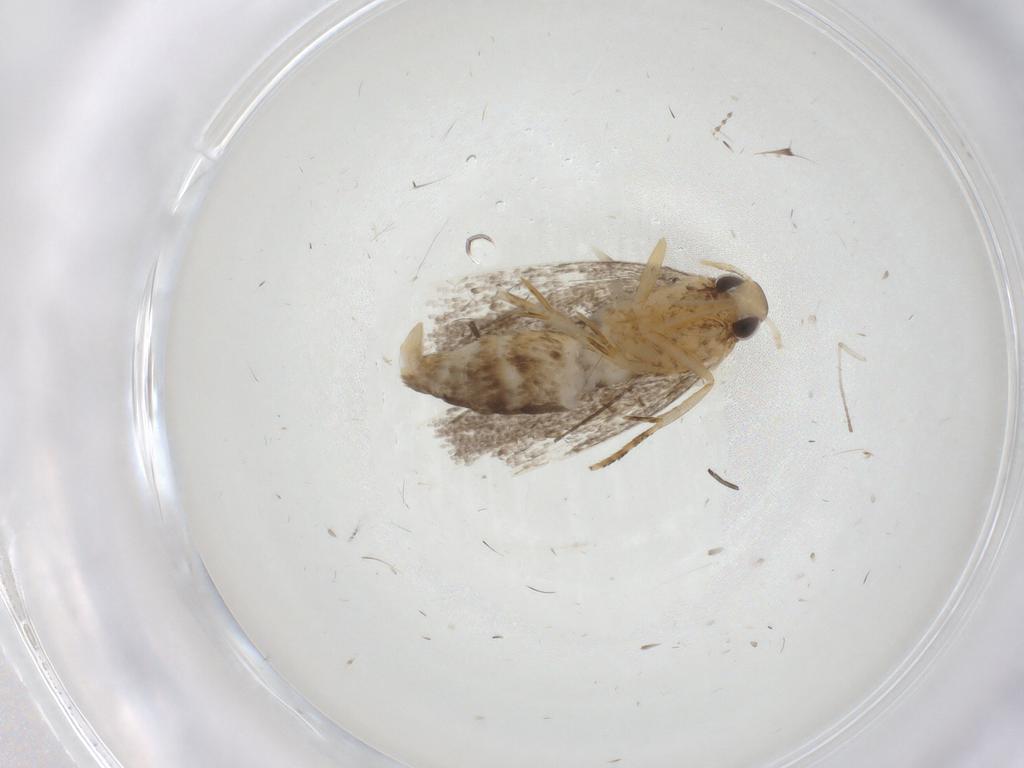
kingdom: Animalia
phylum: Arthropoda
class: Insecta
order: Lepidoptera
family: Oecophoridae
